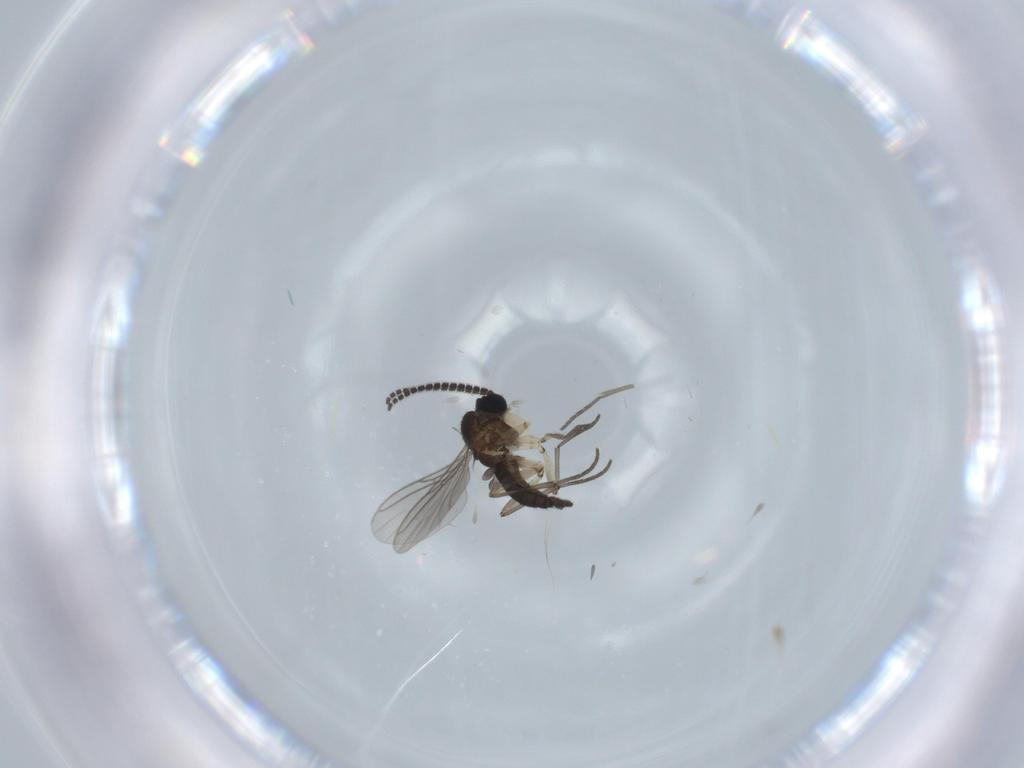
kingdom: Animalia
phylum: Arthropoda
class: Insecta
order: Diptera
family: Sciaridae
